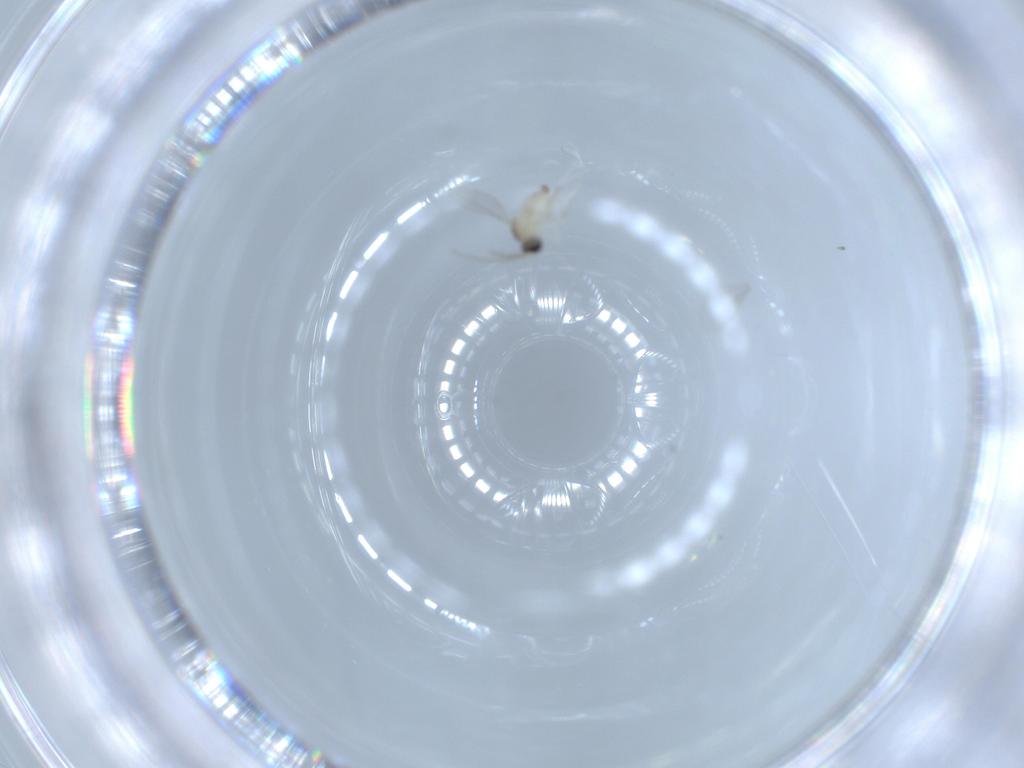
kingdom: Animalia
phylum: Arthropoda
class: Insecta
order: Diptera
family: Cecidomyiidae
